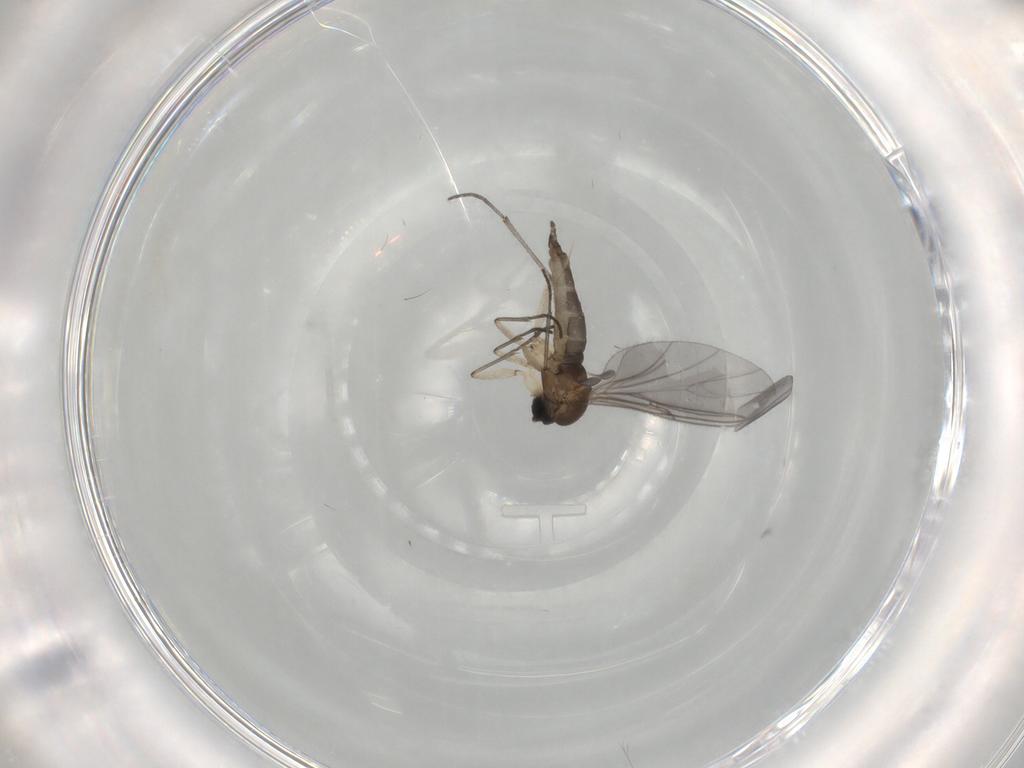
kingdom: Animalia
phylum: Arthropoda
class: Insecta
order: Diptera
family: Sciaridae
